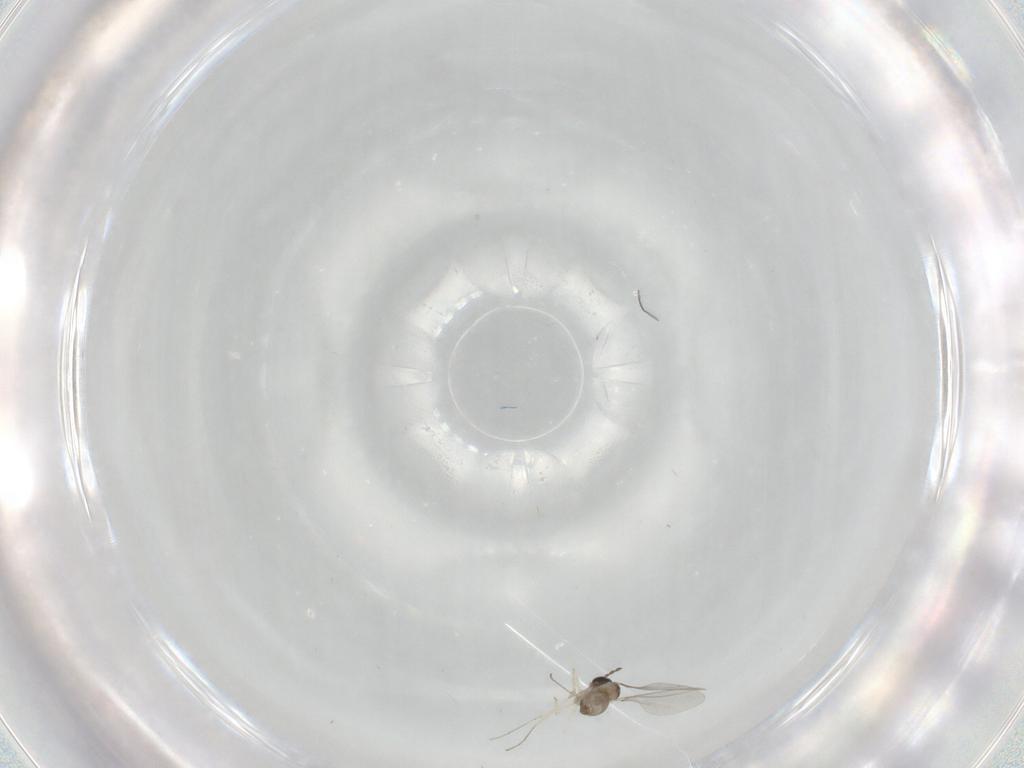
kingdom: Animalia
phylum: Arthropoda
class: Insecta
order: Diptera
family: Cecidomyiidae
